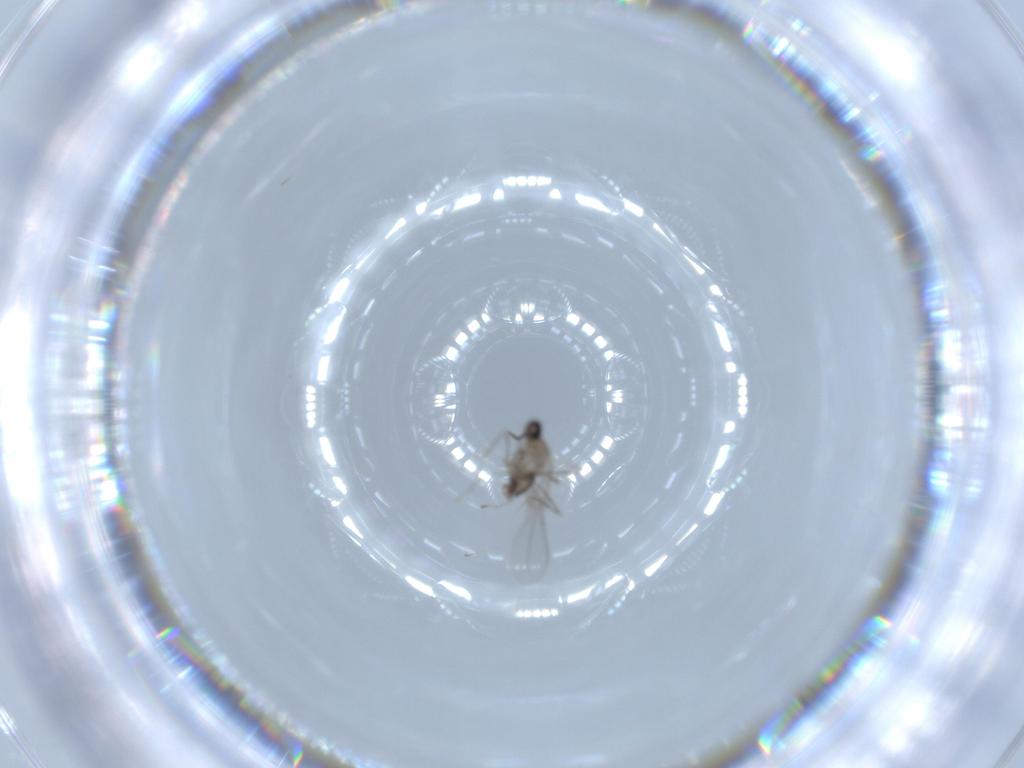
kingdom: Animalia
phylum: Arthropoda
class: Insecta
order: Diptera
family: Cecidomyiidae
